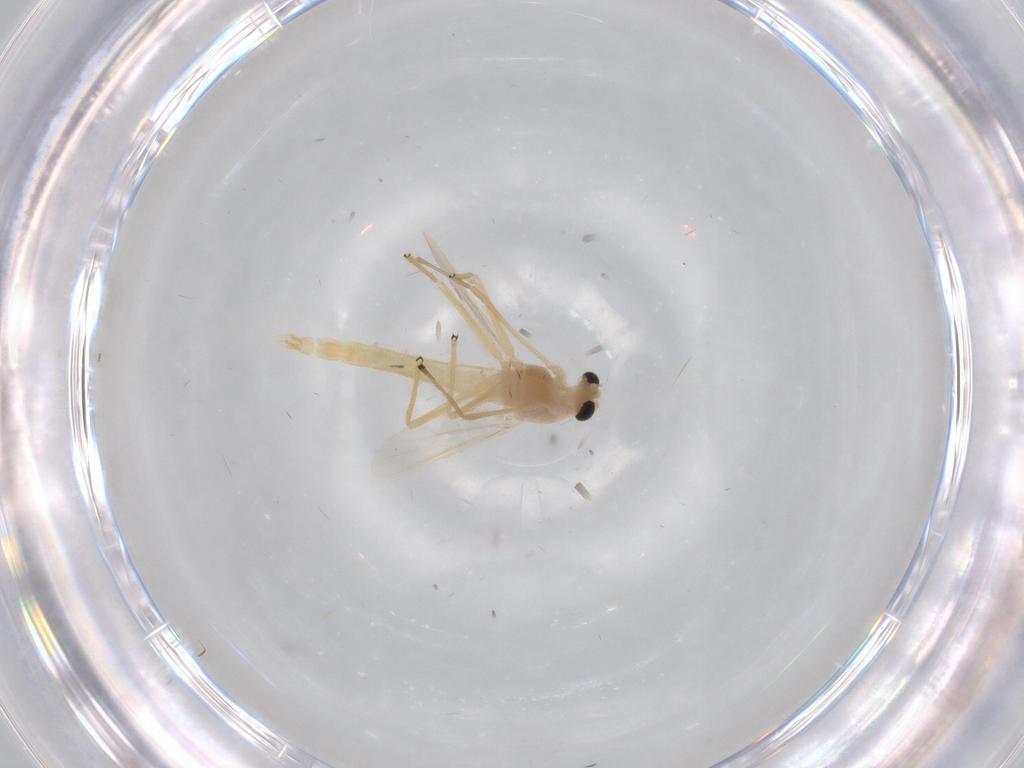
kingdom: Animalia
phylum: Arthropoda
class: Insecta
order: Diptera
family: Chironomidae
